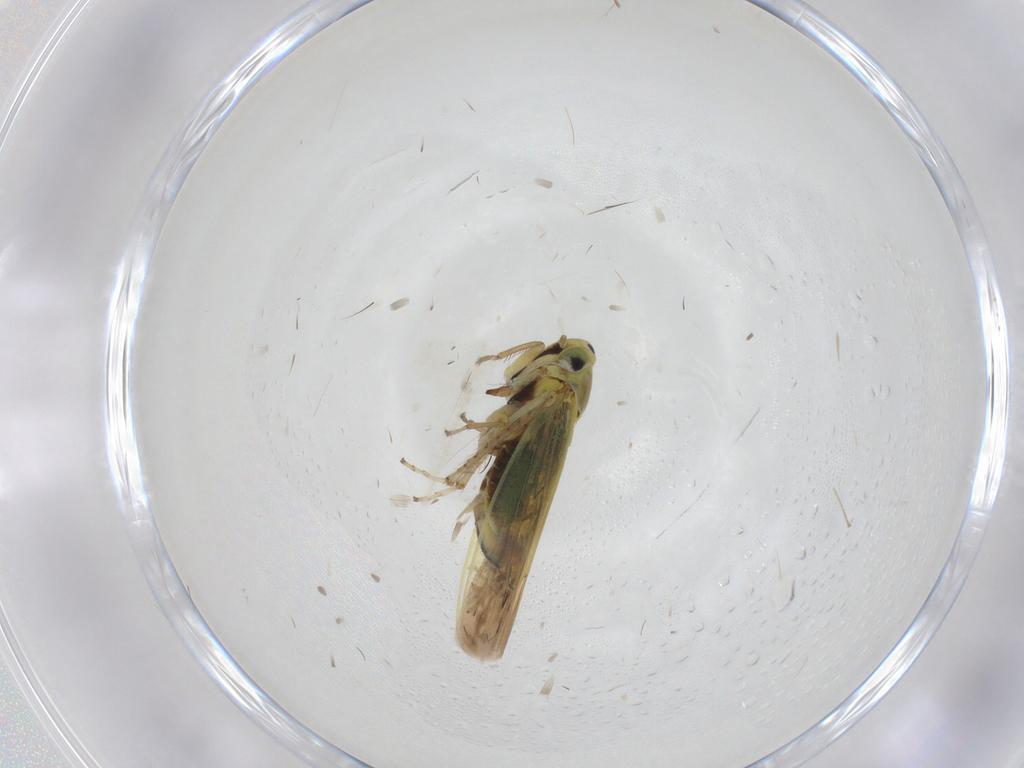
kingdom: Animalia
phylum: Arthropoda
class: Insecta
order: Hemiptera
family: Cicadellidae
